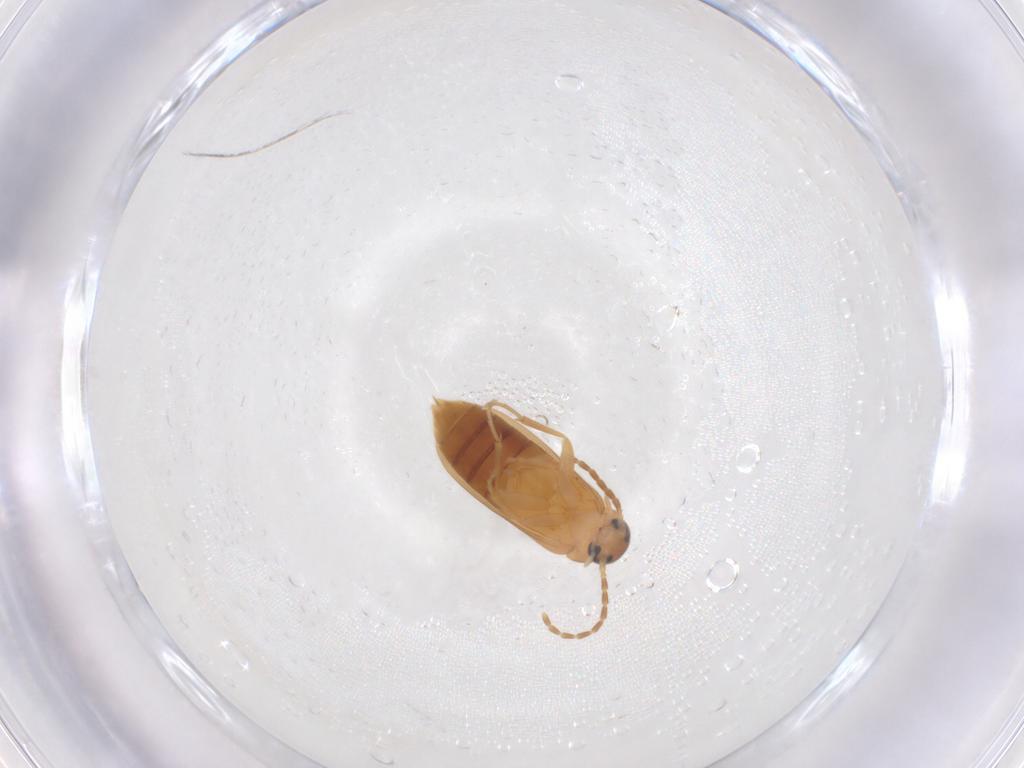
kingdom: Animalia
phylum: Arthropoda
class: Insecta
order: Coleoptera
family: Scraptiidae
